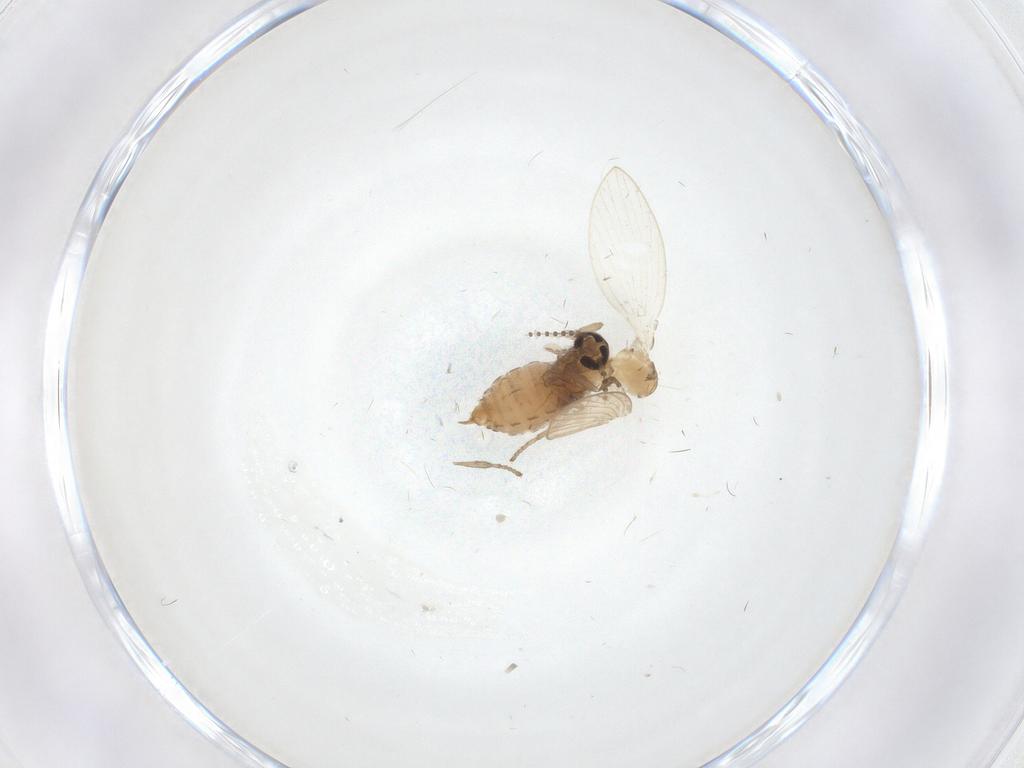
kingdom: Animalia
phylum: Arthropoda
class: Insecta
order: Diptera
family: Psychodidae
